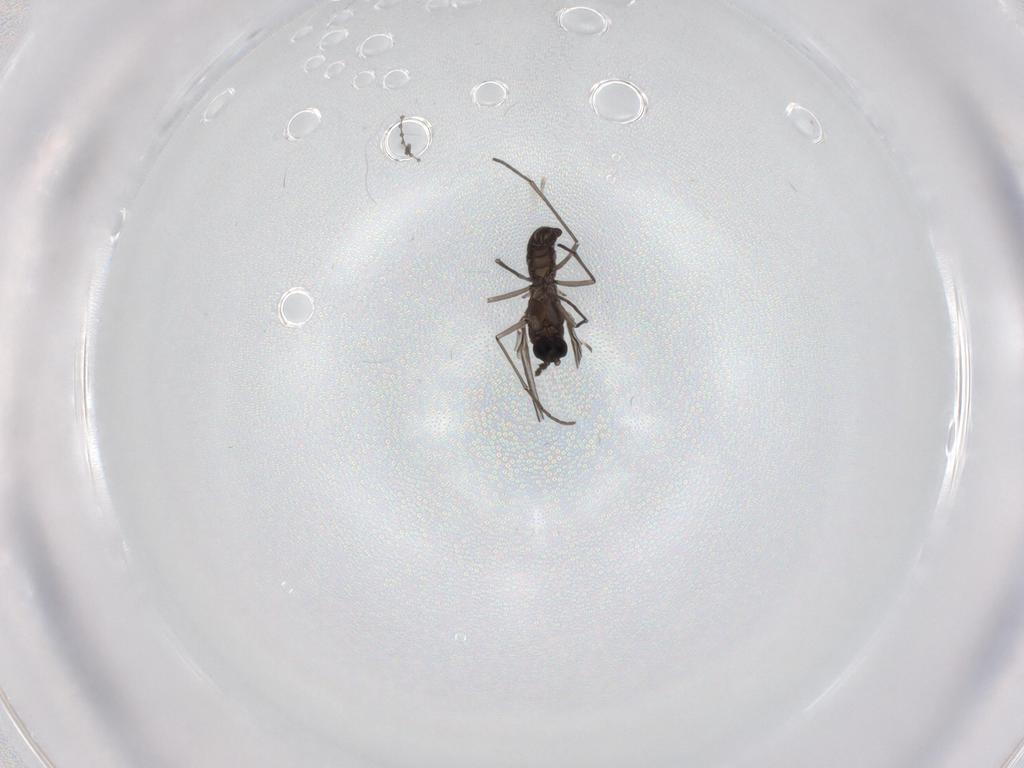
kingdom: Animalia
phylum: Arthropoda
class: Insecta
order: Diptera
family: Sciaridae
